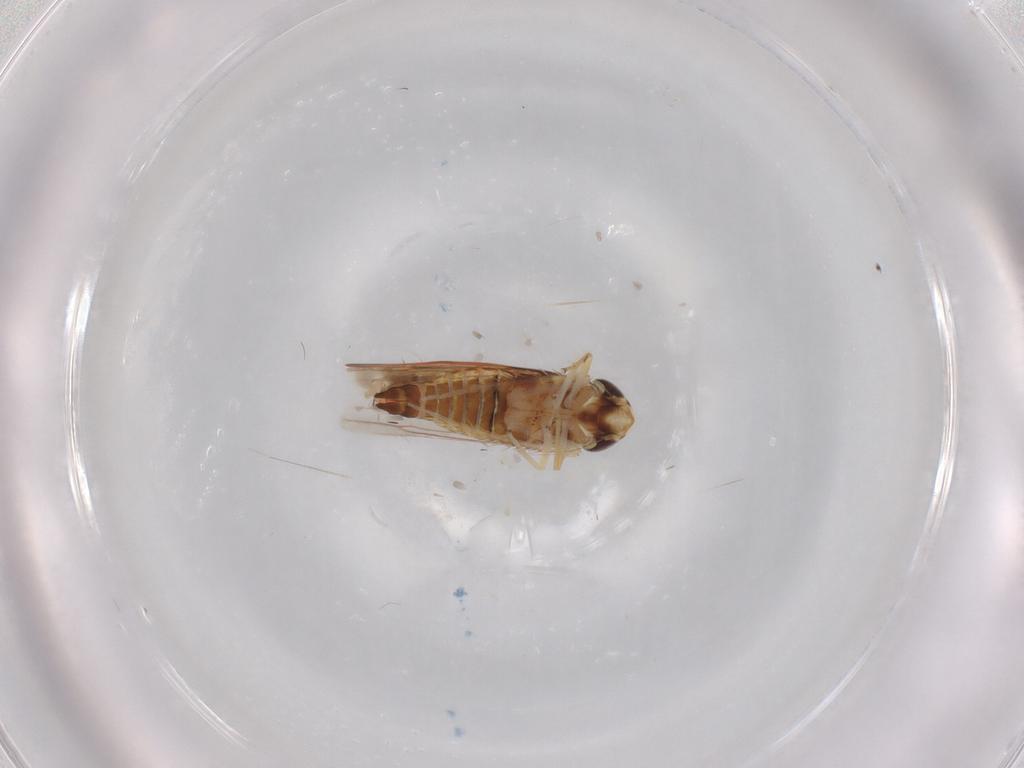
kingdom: Animalia
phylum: Arthropoda
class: Insecta
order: Hemiptera
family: Cicadellidae
